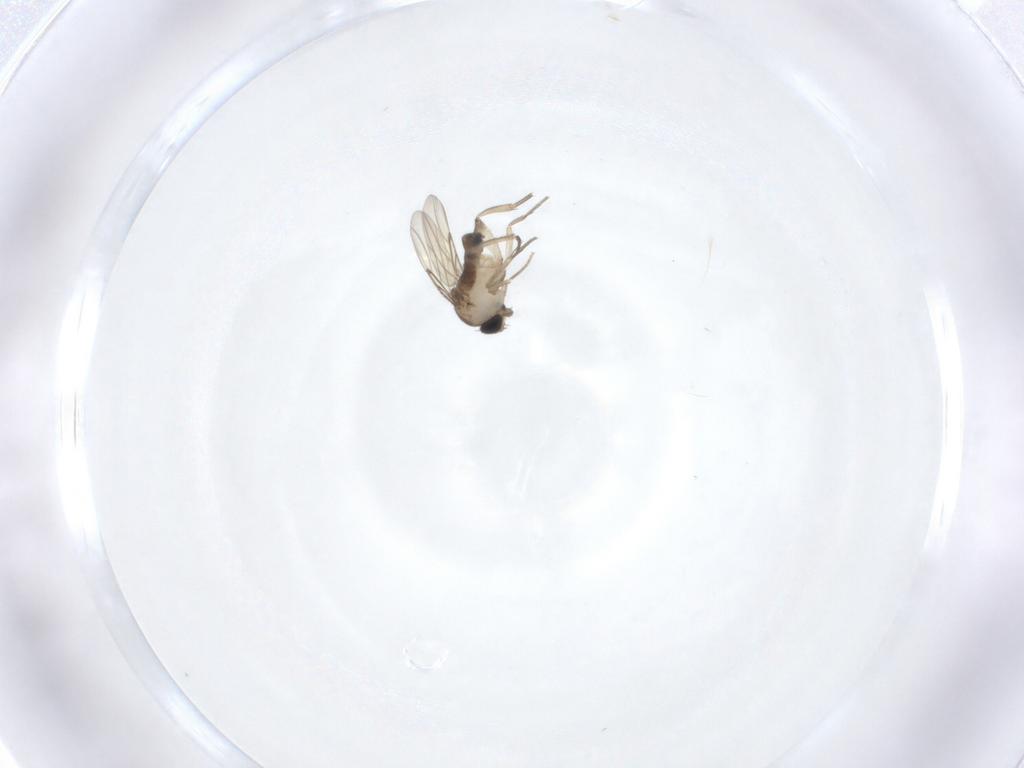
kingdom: Animalia
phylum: Arthropoda
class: Insecta
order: Diptera
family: Phoridae
